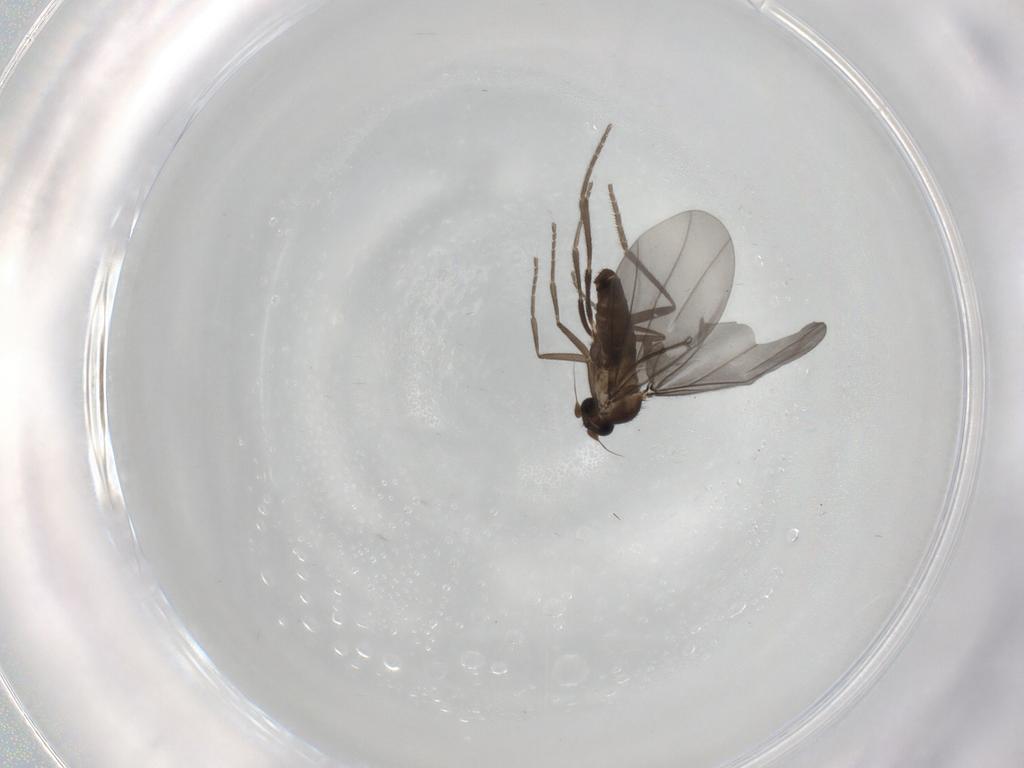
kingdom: Animalia
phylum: Arthropoda
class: Insecta
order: Diptera
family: Phoridae
